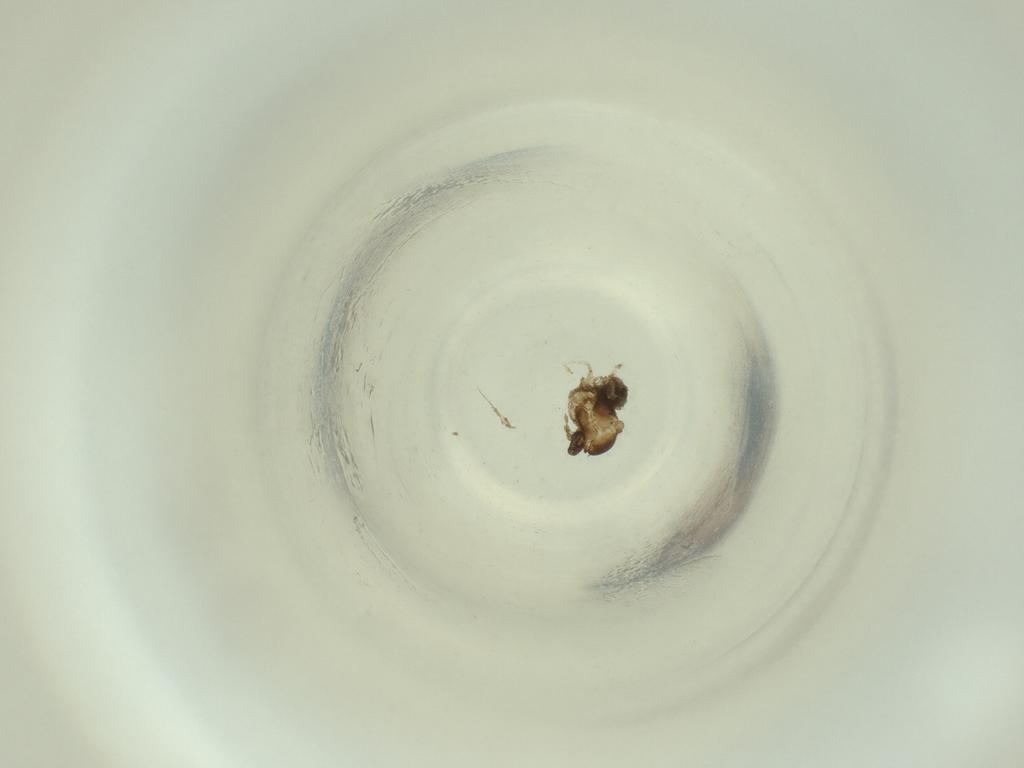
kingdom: Animalia
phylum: Arthropoda
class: Insecta
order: Diptera
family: Cecidomyiidae
